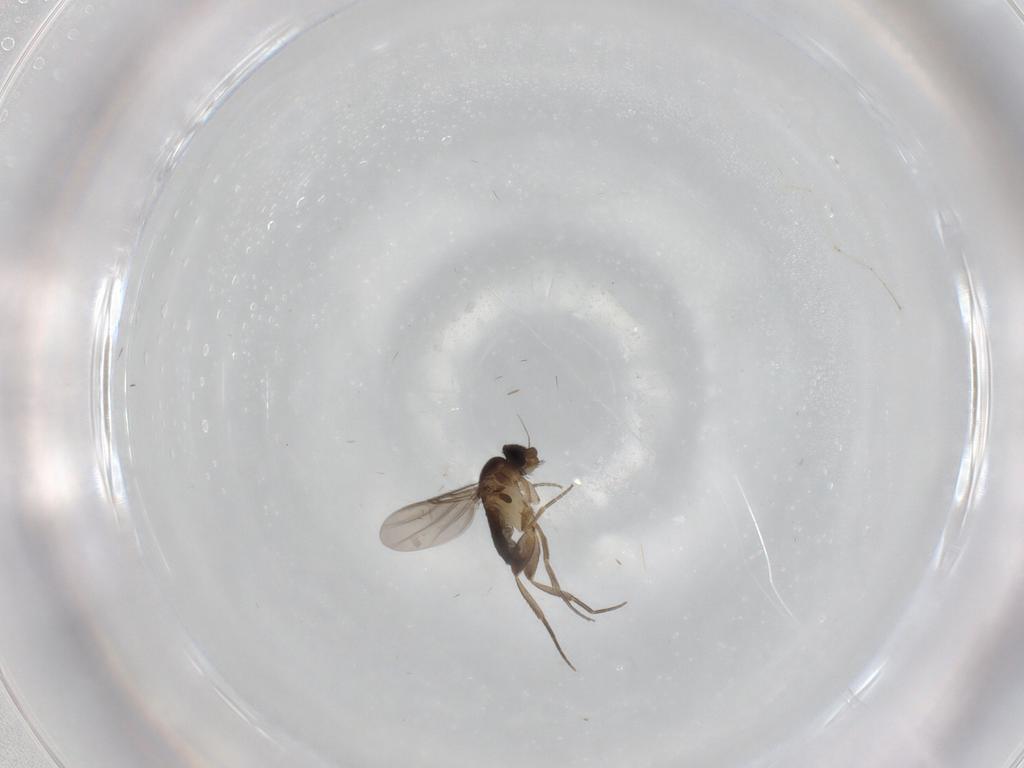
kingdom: Animalia
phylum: Arthropoda
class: Insecta
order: Diptera
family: Phoridae
